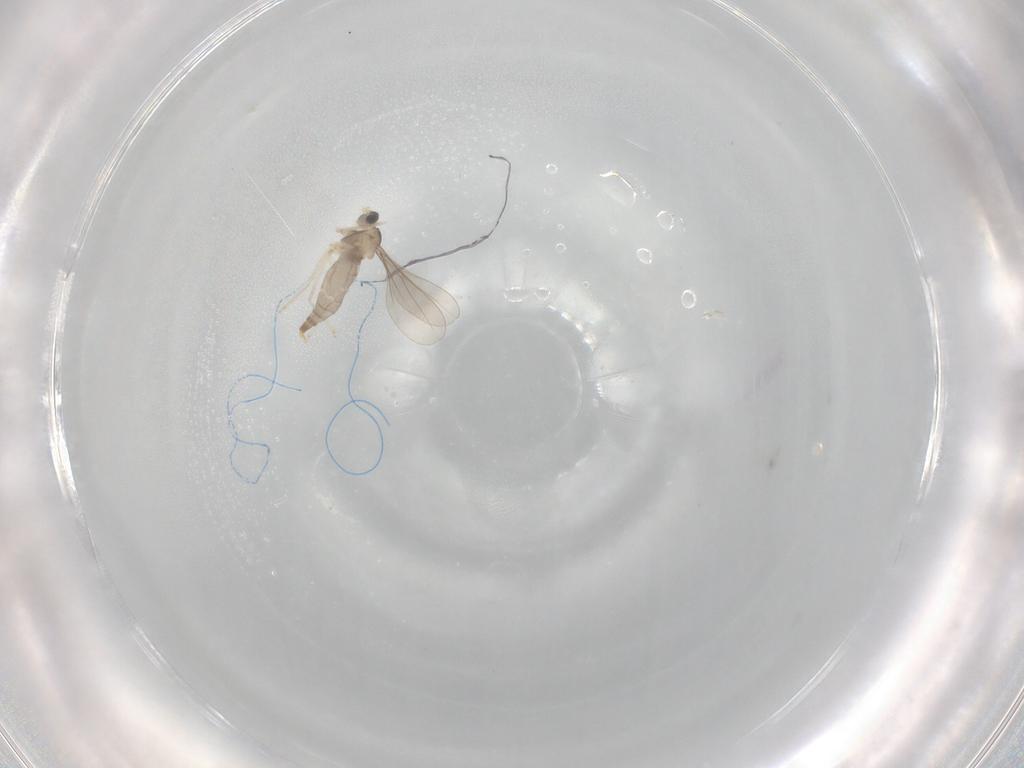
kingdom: Animalia
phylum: Arthropoda
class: Insecta
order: Diptera
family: Cecidomyiidae
